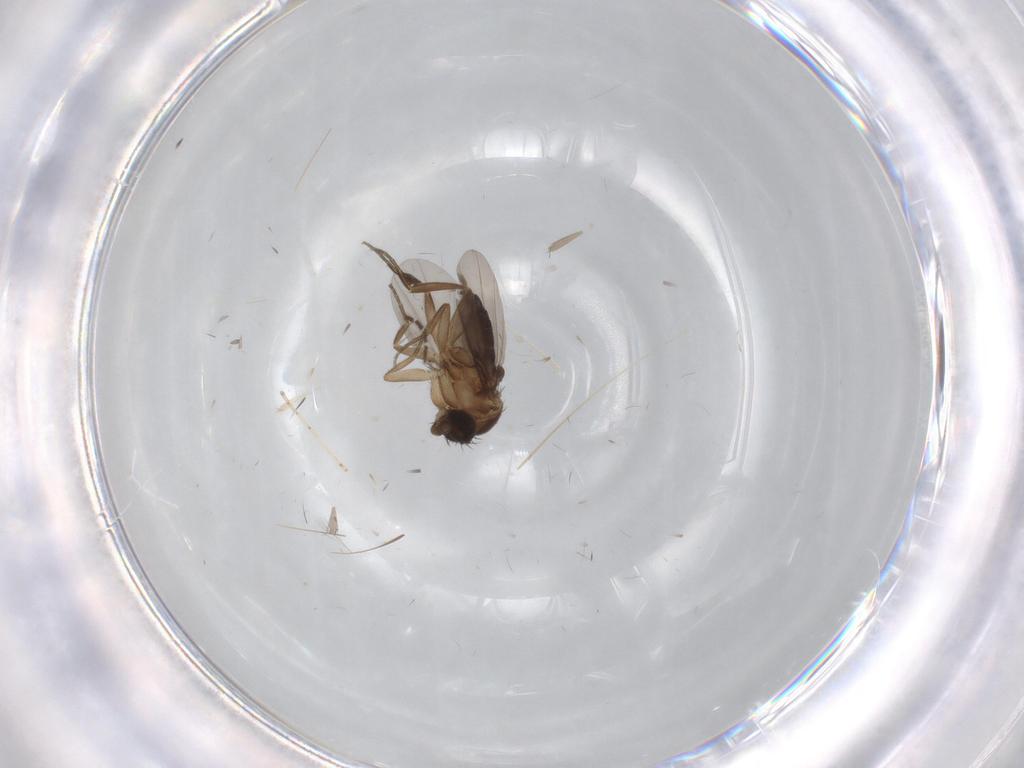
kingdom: Animalia
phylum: Arthropoda
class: Insecta
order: Diptera
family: Phoridae
